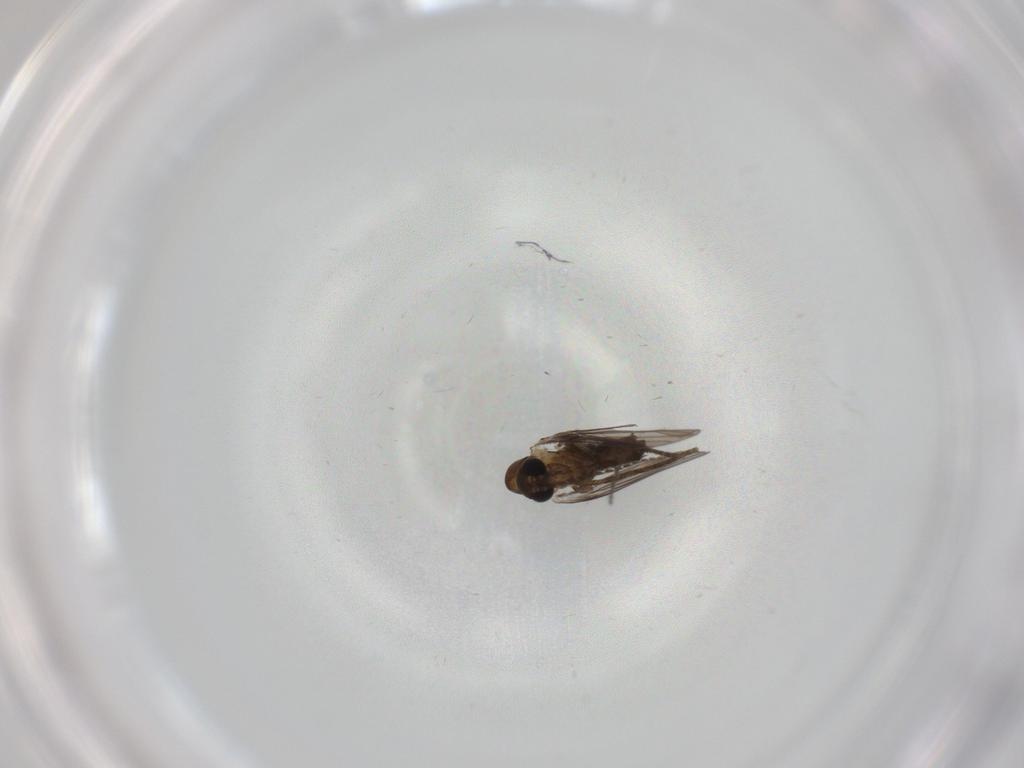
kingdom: Animalia
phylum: Arthropoda
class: Insecta
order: Diptera
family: Psychodidae
